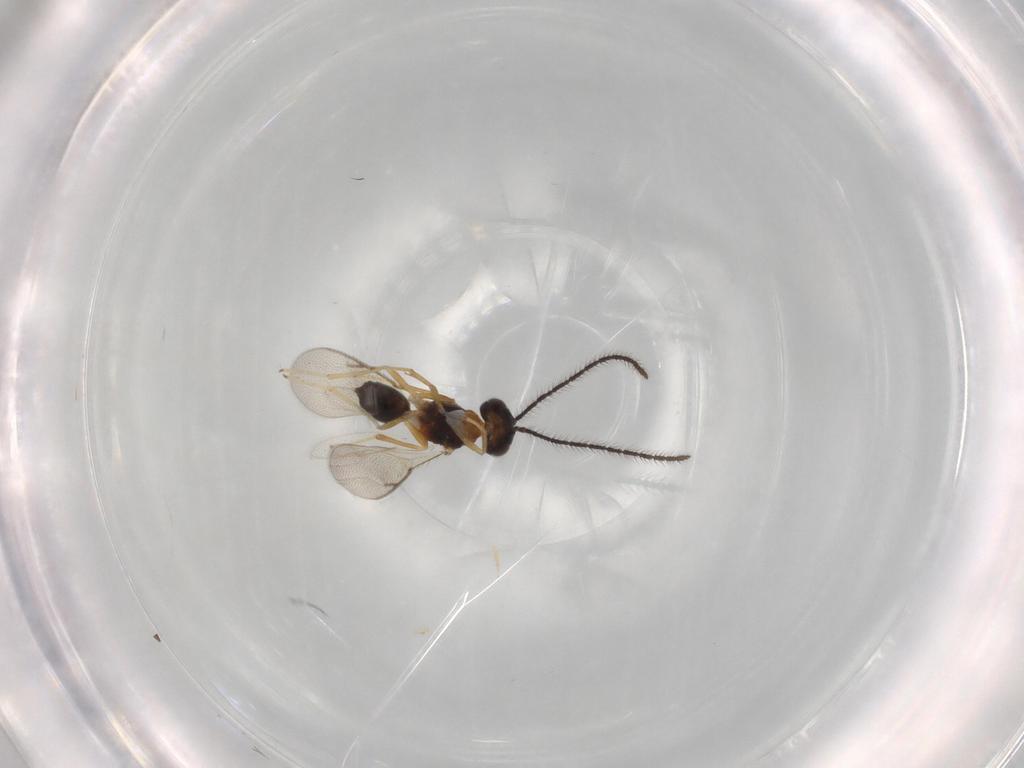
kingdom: Animalia
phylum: Arthropoda
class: Insecta
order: Hymenoptera
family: Diparidae
